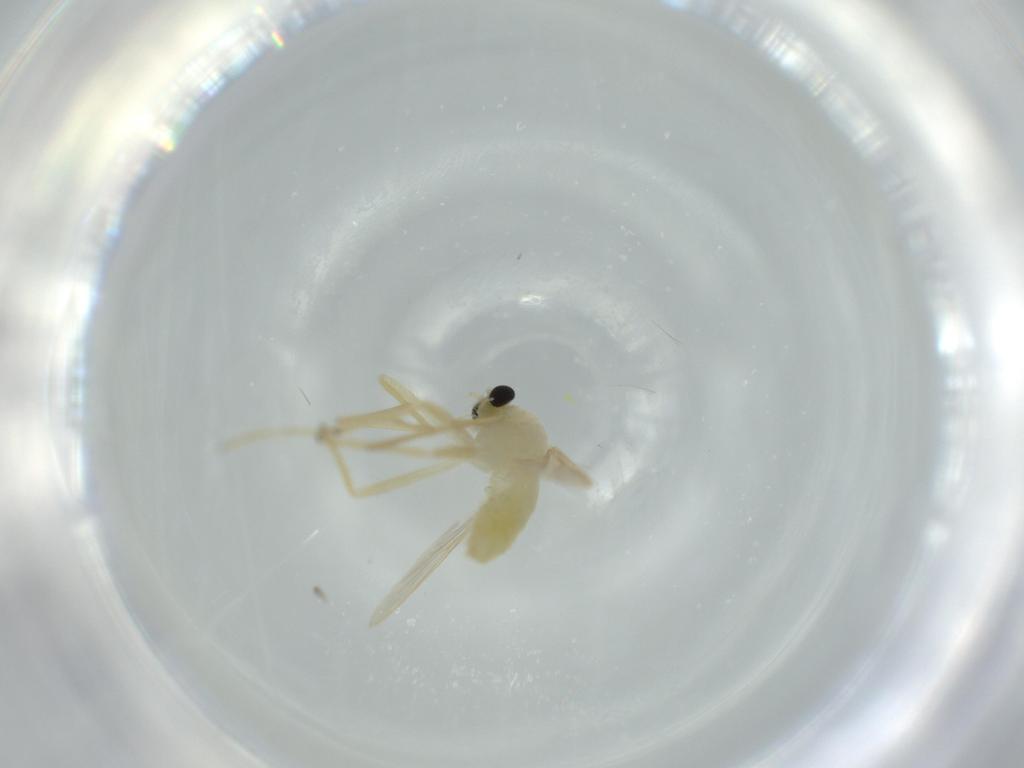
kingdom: Animalia
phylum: Arthropoda
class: Insecta
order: Diptera
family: Chironomidae
